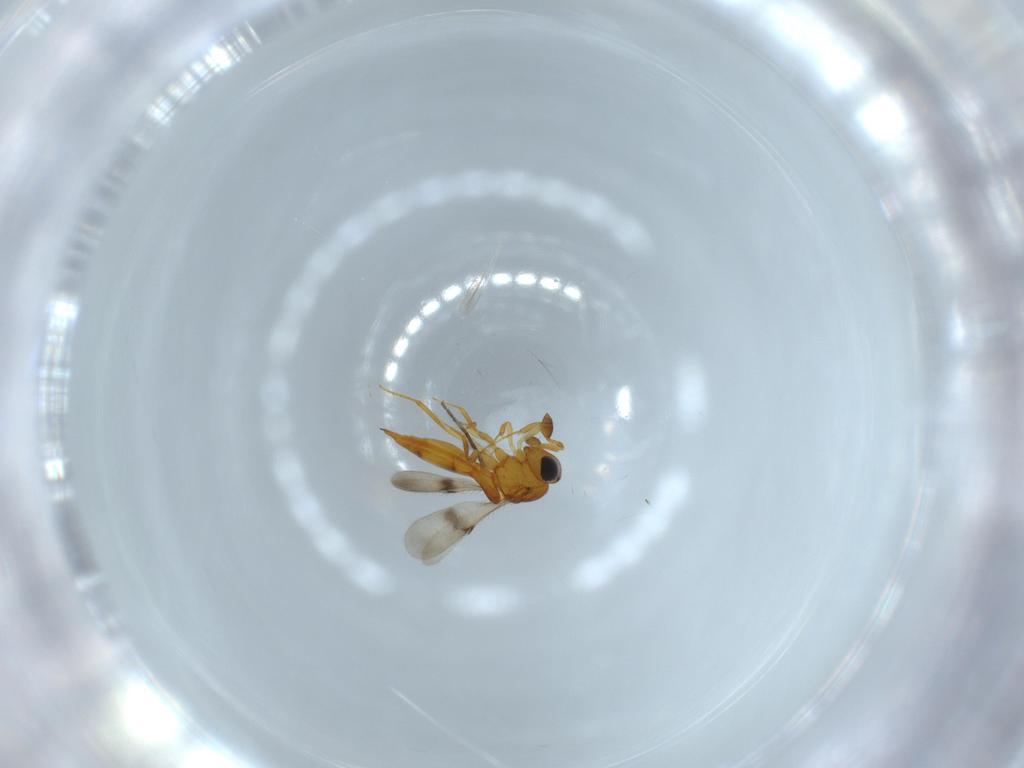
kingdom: Animalia
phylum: Arthropoda
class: Insecta
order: Hymenoptera
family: Scelionidae
